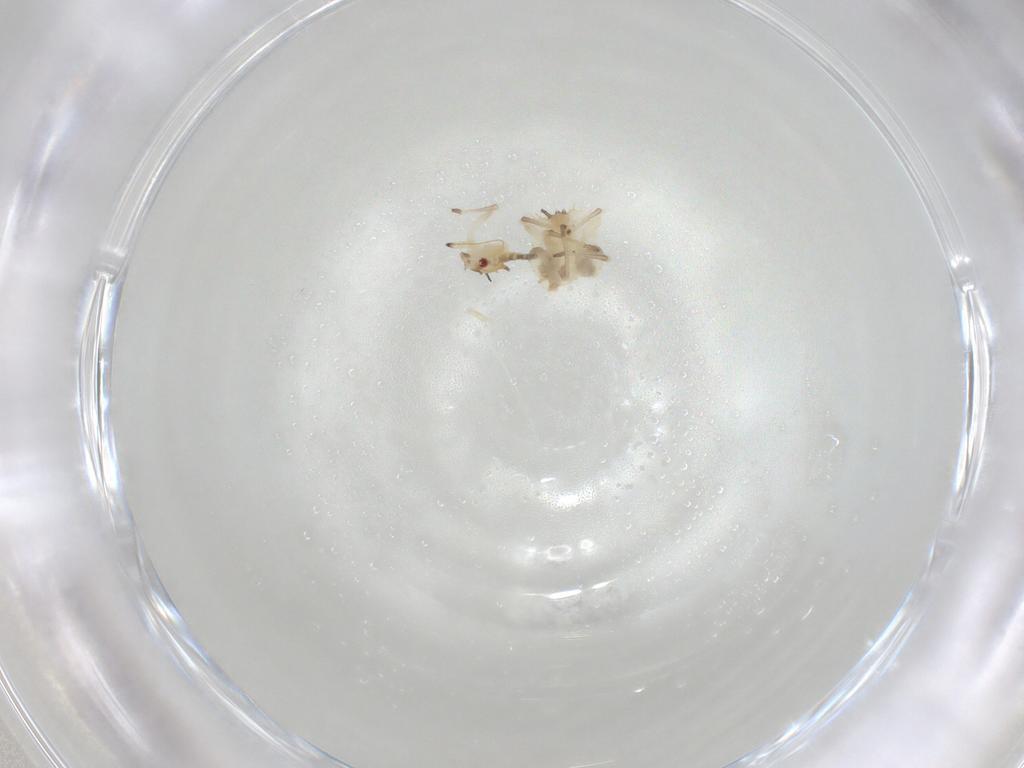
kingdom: Animalia
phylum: Arthropoda
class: Insecta
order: Hemiptera
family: Tingidae
